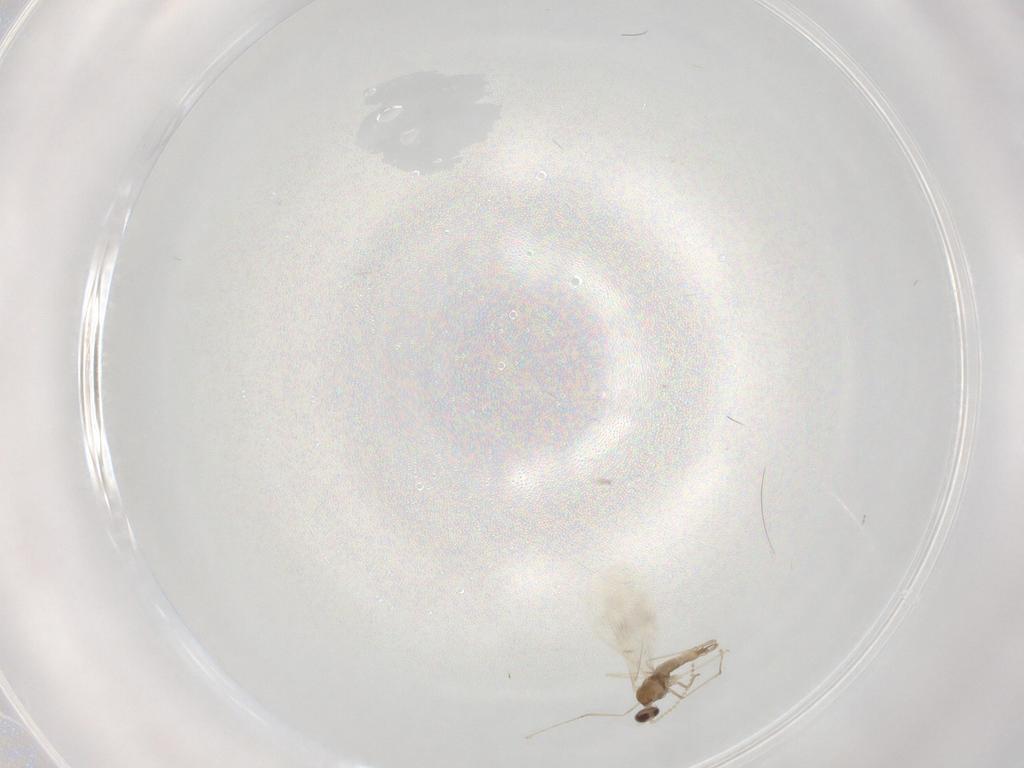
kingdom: Animalia
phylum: Arthropoda
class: Insecta
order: Diptera
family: Cecidomyiidae
